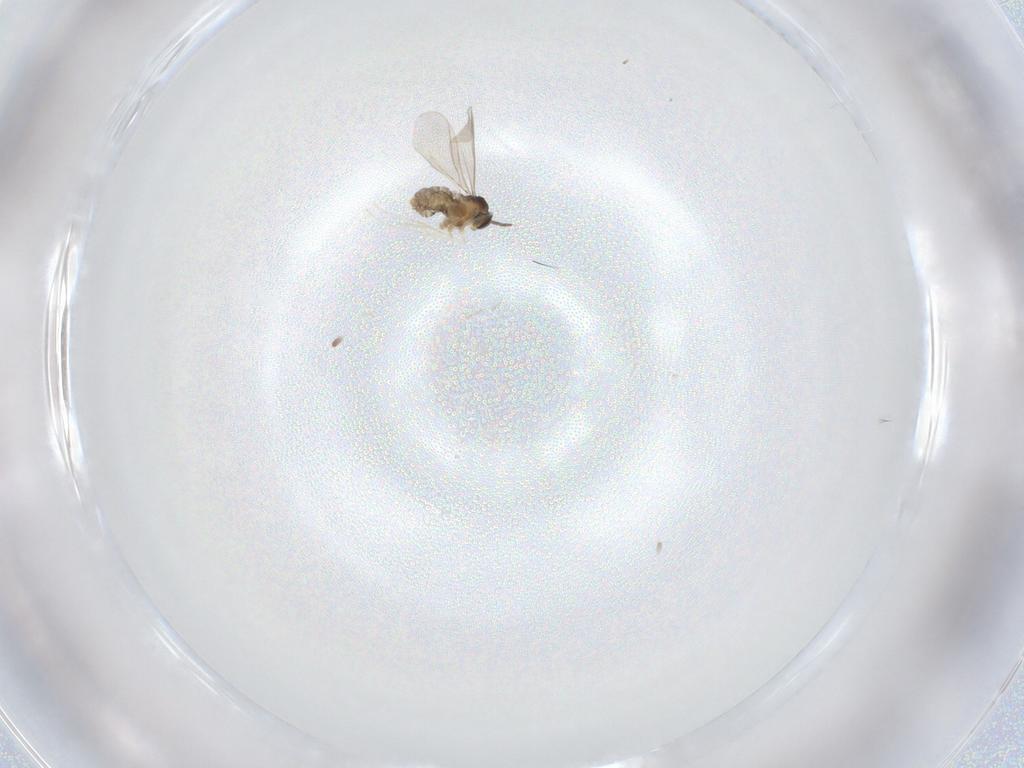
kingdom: Animalia
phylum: Arthropoda
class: Insecta
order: Diptera
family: Cecidomyiidae
